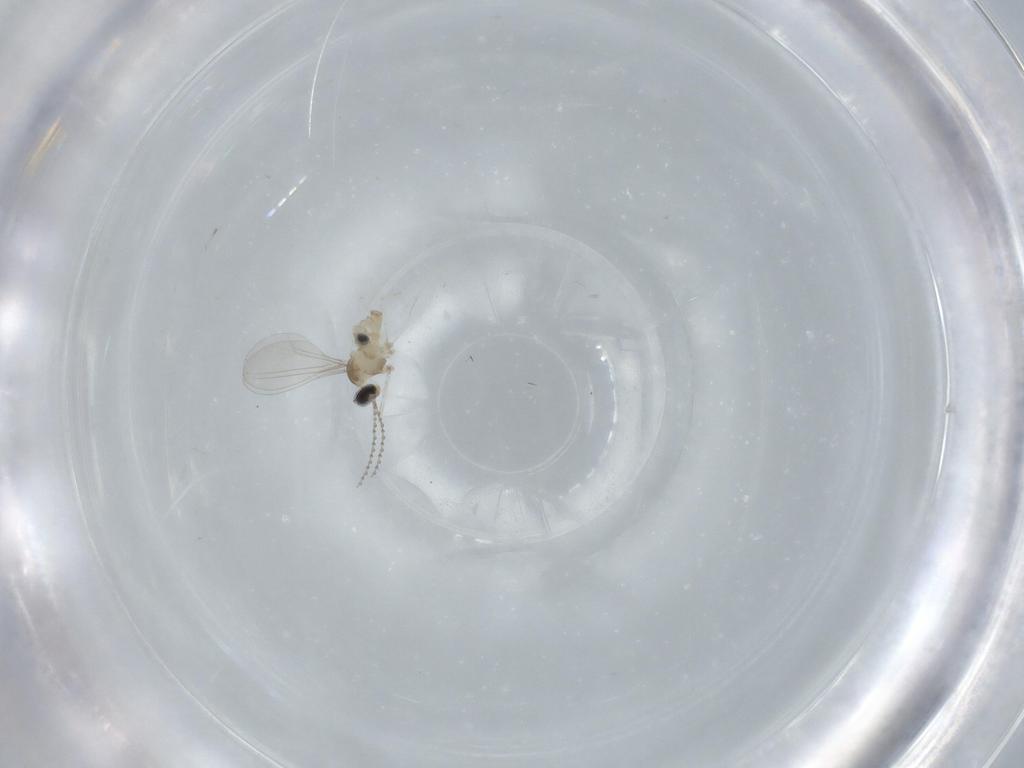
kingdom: Animalia
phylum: Arthropoda
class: Insecta
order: Diptera
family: Cecidomyiidae
